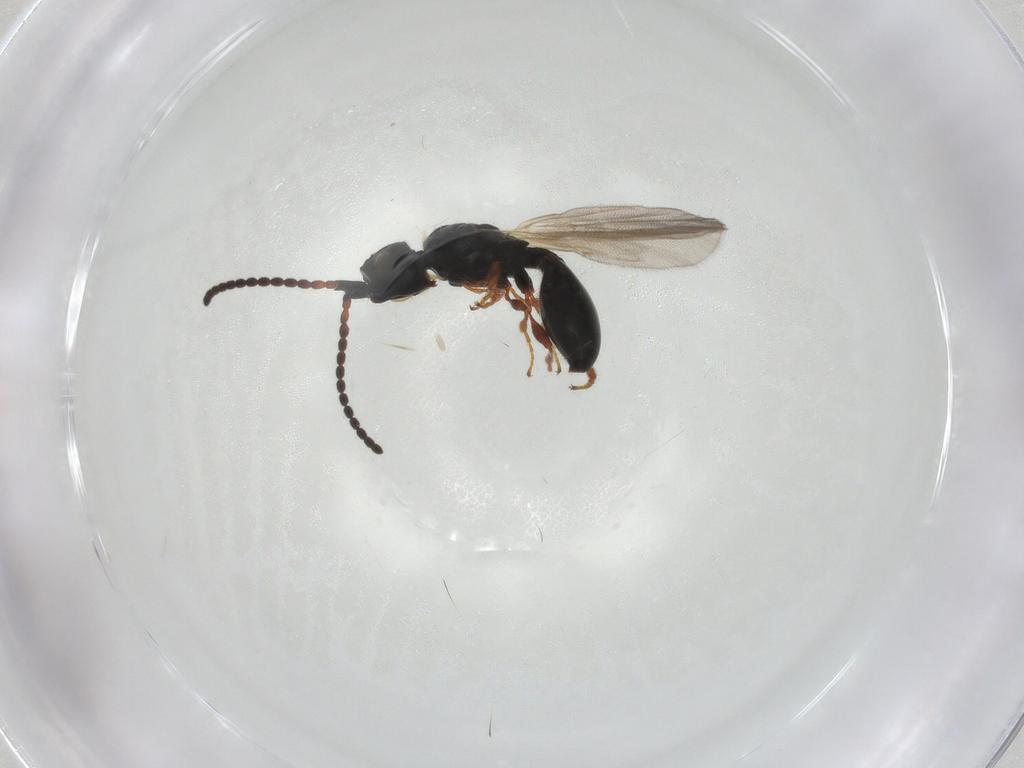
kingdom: Animalia
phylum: Arthropoda
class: Insecta
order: Hymenoptera
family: Diapriidae
